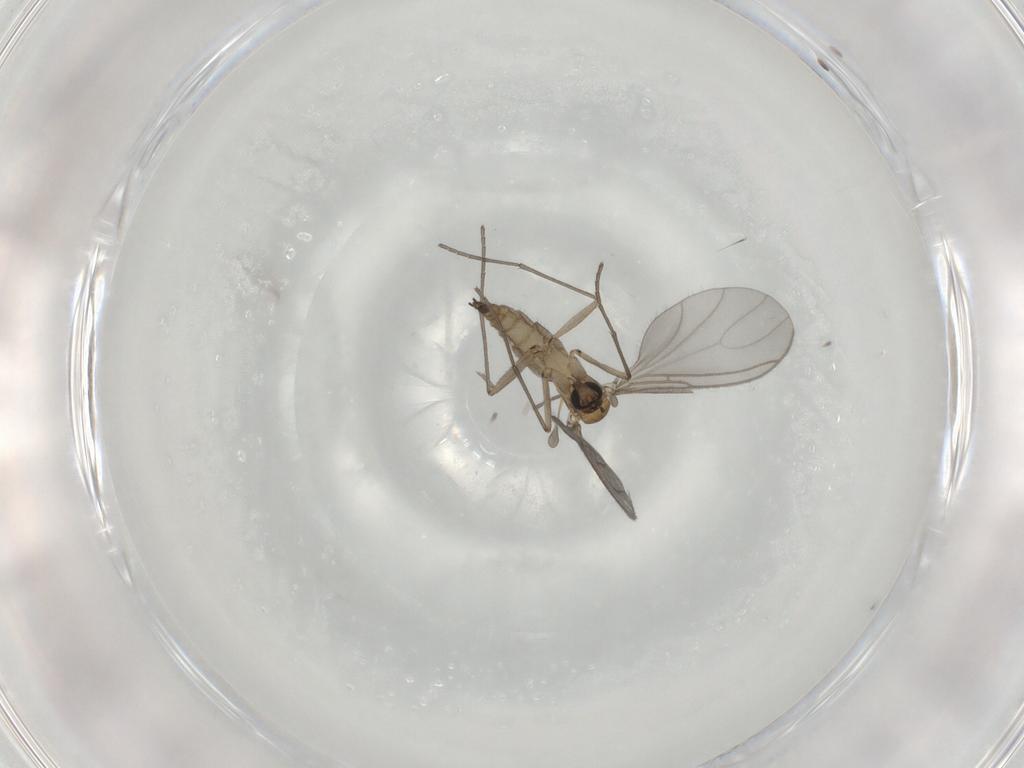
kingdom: Animalia
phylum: Arthropoda
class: Insecta
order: Diptera
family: Sciaridae
